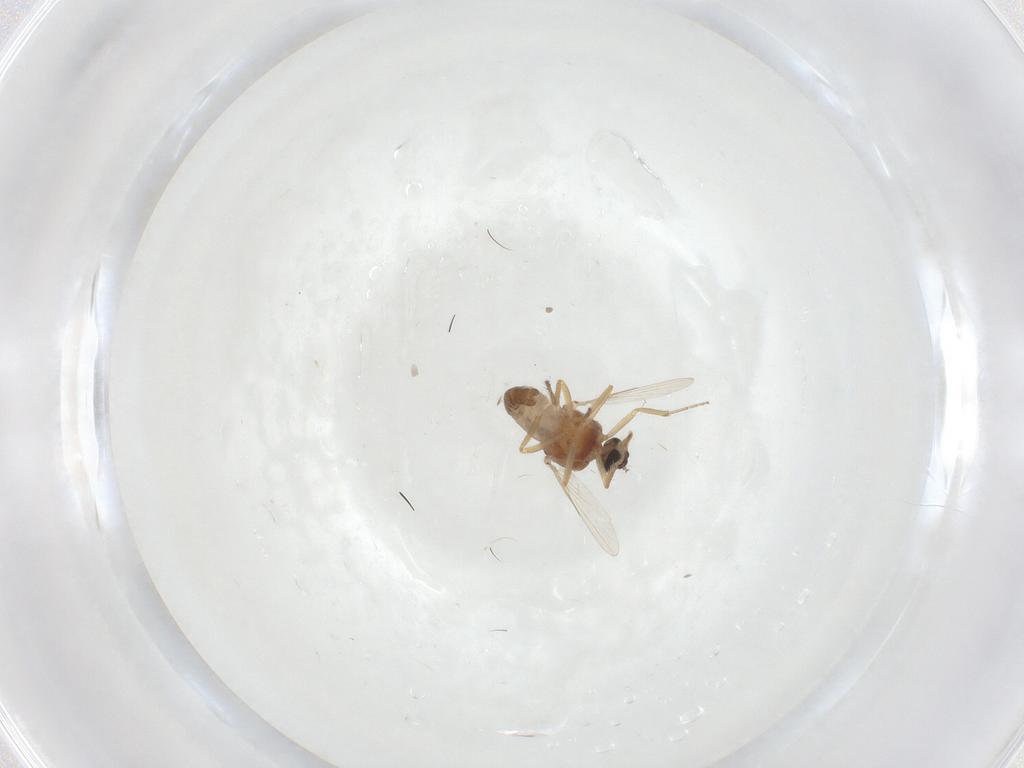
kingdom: Animalia
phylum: Arthropoda
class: Insecta
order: Diptera
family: Ceratopogonidae
